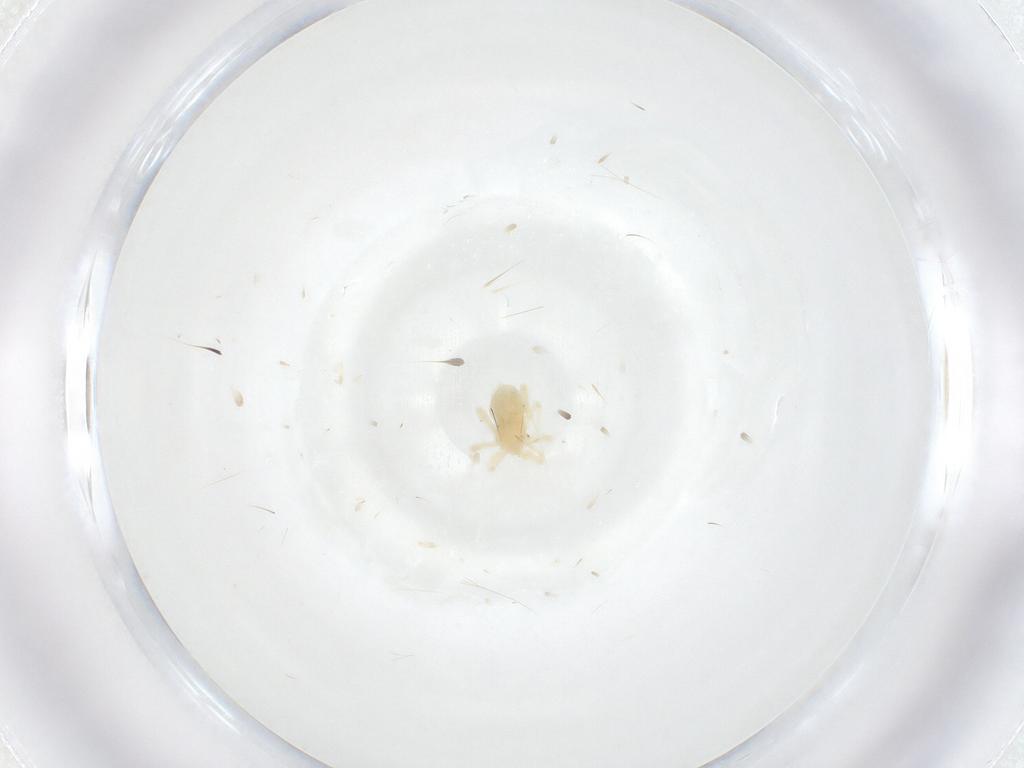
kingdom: Animalia
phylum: Arthropoda
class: Arachnida
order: Trombidiformes
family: Anystidae
